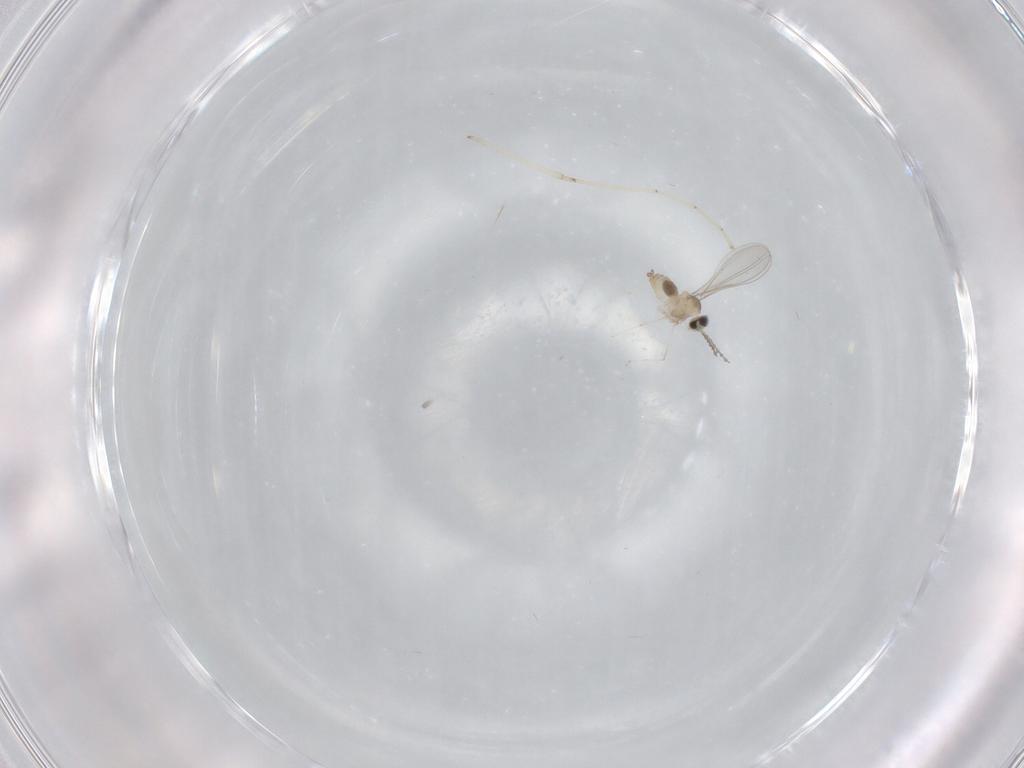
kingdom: Animalia
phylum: Arthropoda
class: Insecta
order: Diptera
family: Cecidomyiidae
